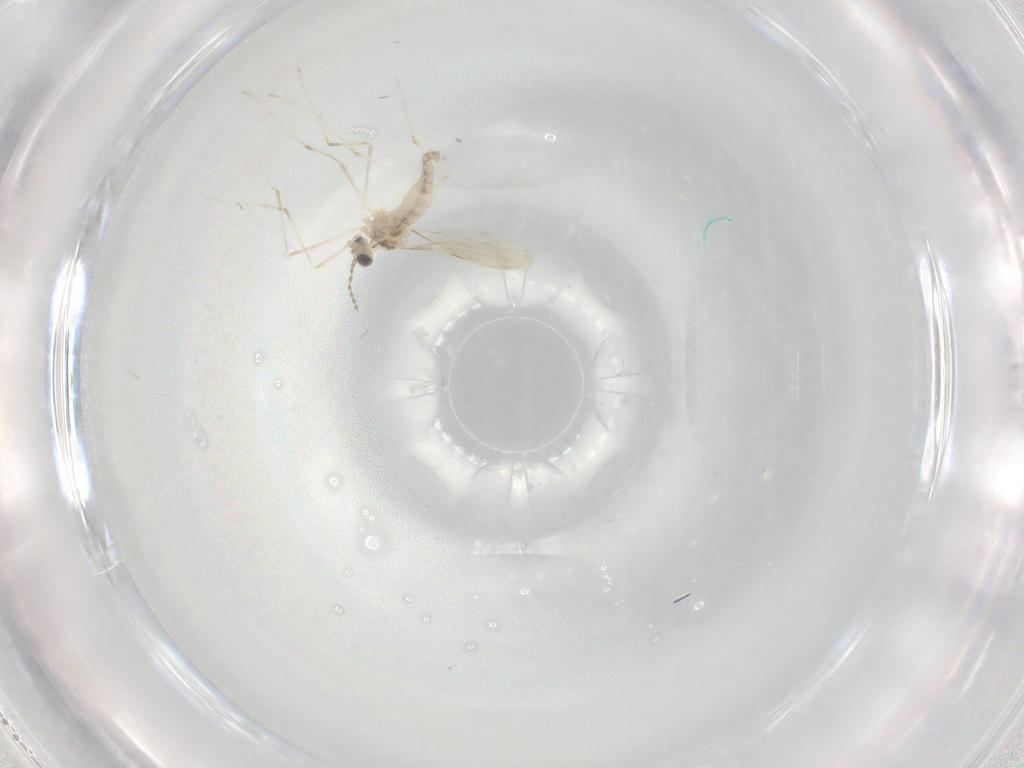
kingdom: Animalia
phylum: Arthropoda
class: Insecta
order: Diptera
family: Cecidomyiidae
